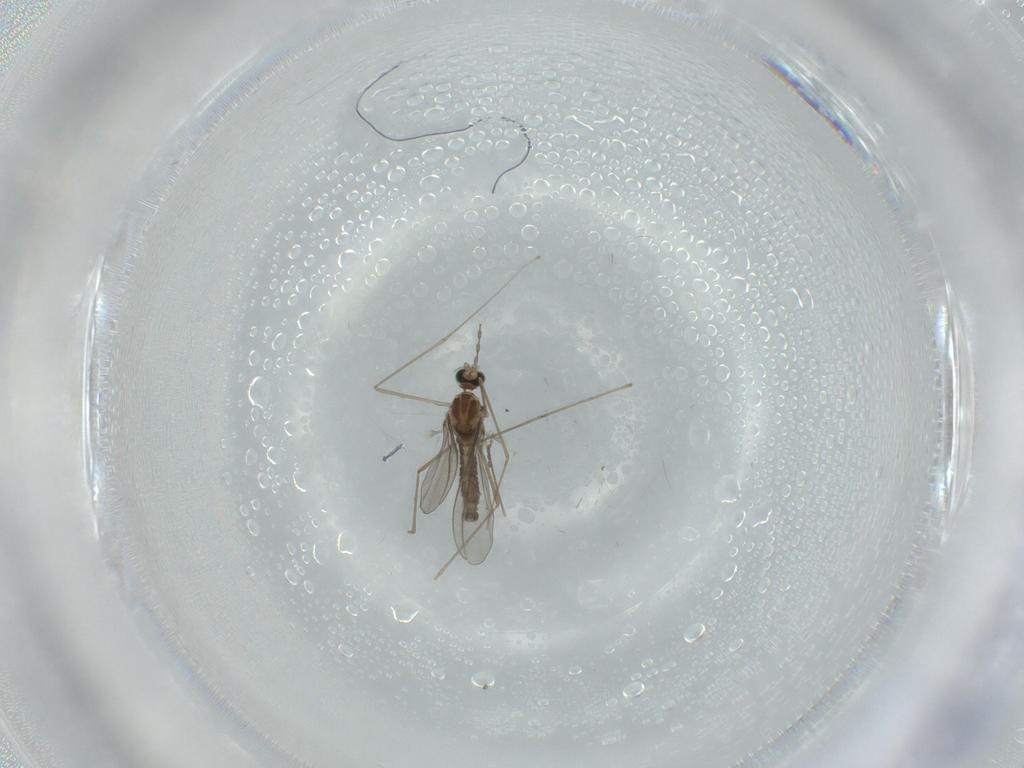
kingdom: Animalia
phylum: Arthropoda
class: Insecta
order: Diptera
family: Cecidomyiidae
